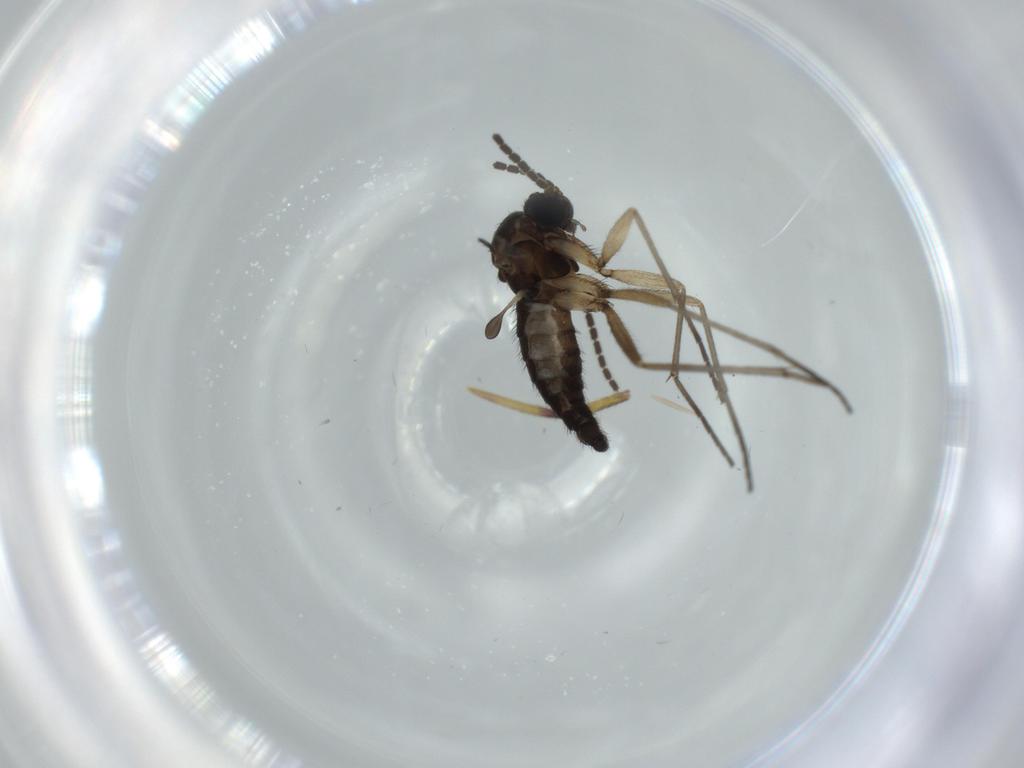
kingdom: Animalia
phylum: Arthropoda
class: Insecta
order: Diptera
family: Sciaridae
